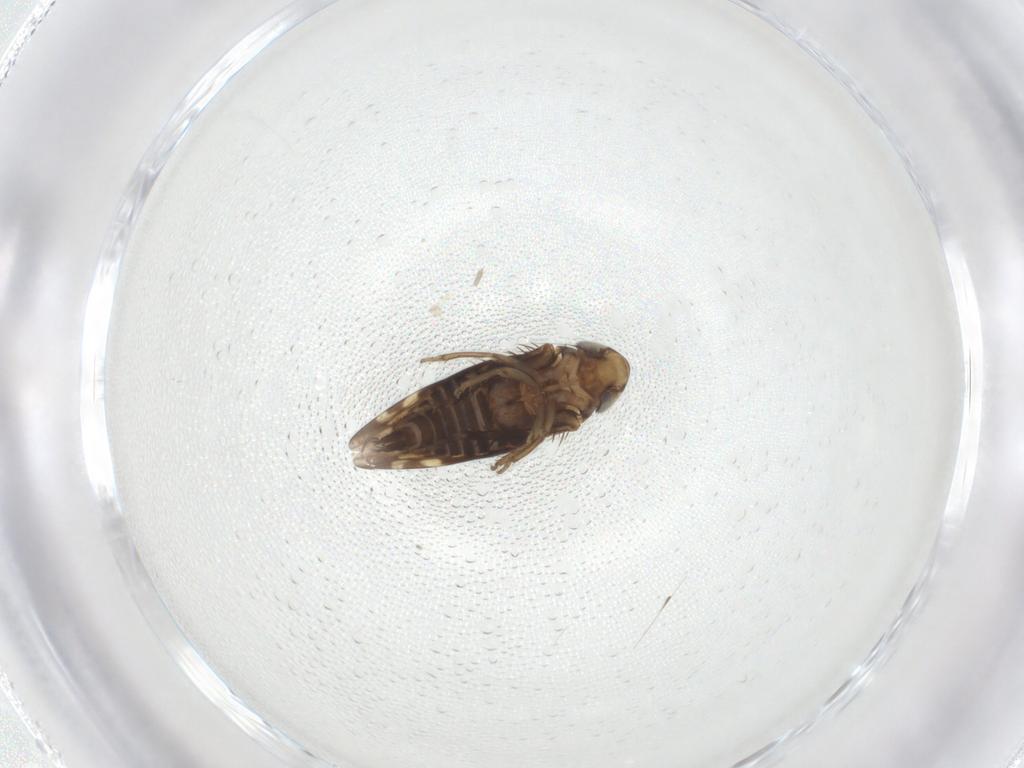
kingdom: Animalia
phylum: Arthropoda
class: Insecta
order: Hemiptera
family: Cicadellidae
